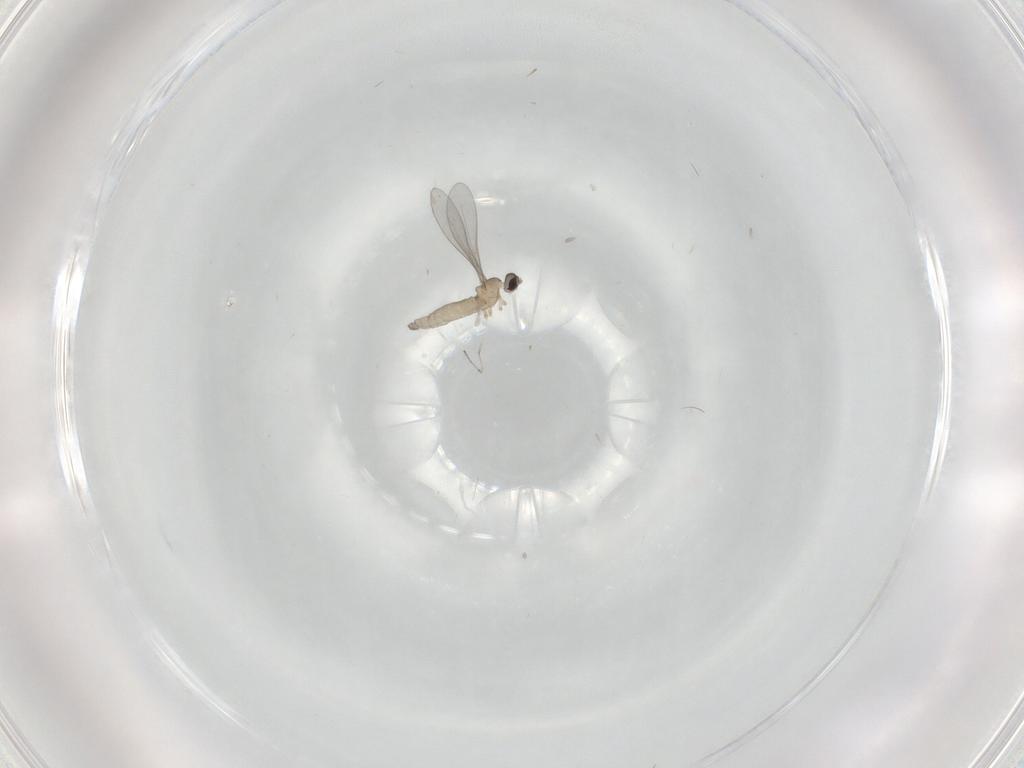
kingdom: Animalia
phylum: Arthropoda
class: Insecta
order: Diptera
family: Cecidomyiidae
